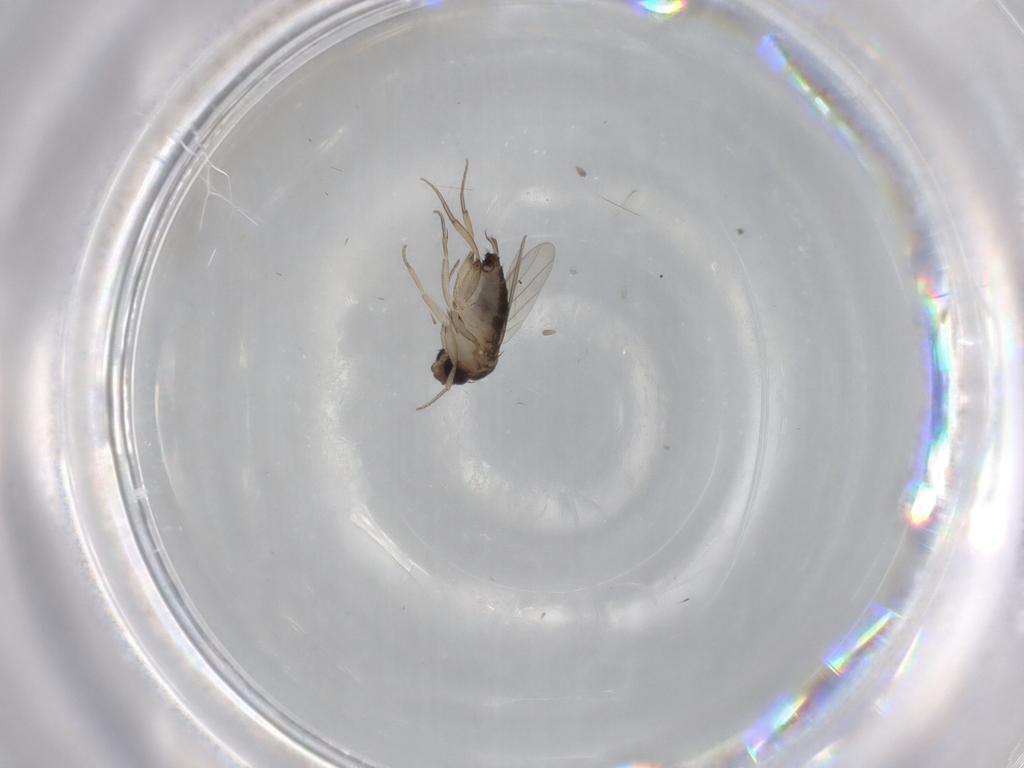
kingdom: Animalia
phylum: Arthropoda
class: Insecta
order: Diptera
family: Phoridae
